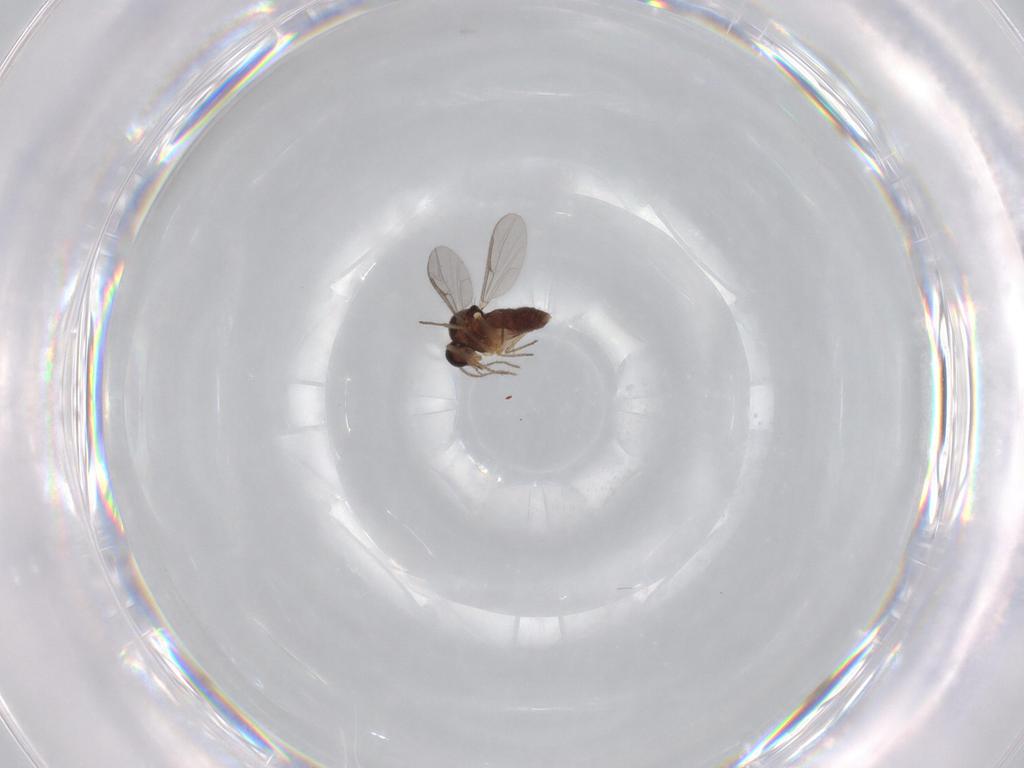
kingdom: Animalia
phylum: Arthropoda
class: Insecta
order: Diptera
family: Ceratopogonidae
